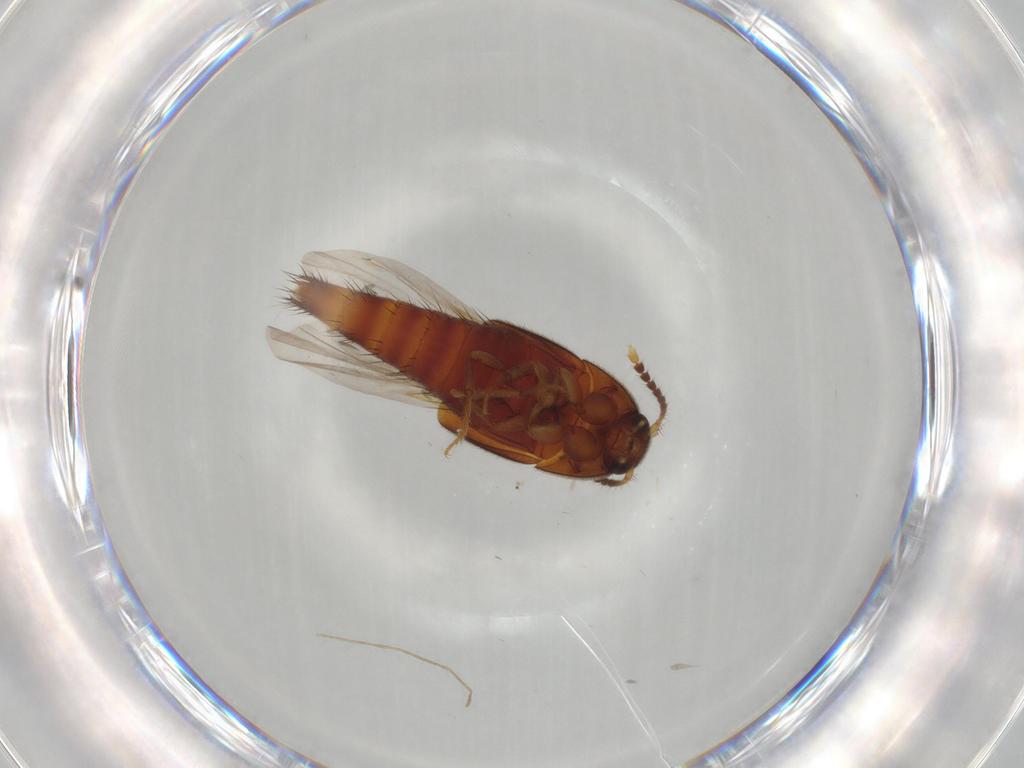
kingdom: Animalia
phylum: Arthropoda
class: Insecta
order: Coleoptera
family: Staphylinidae
